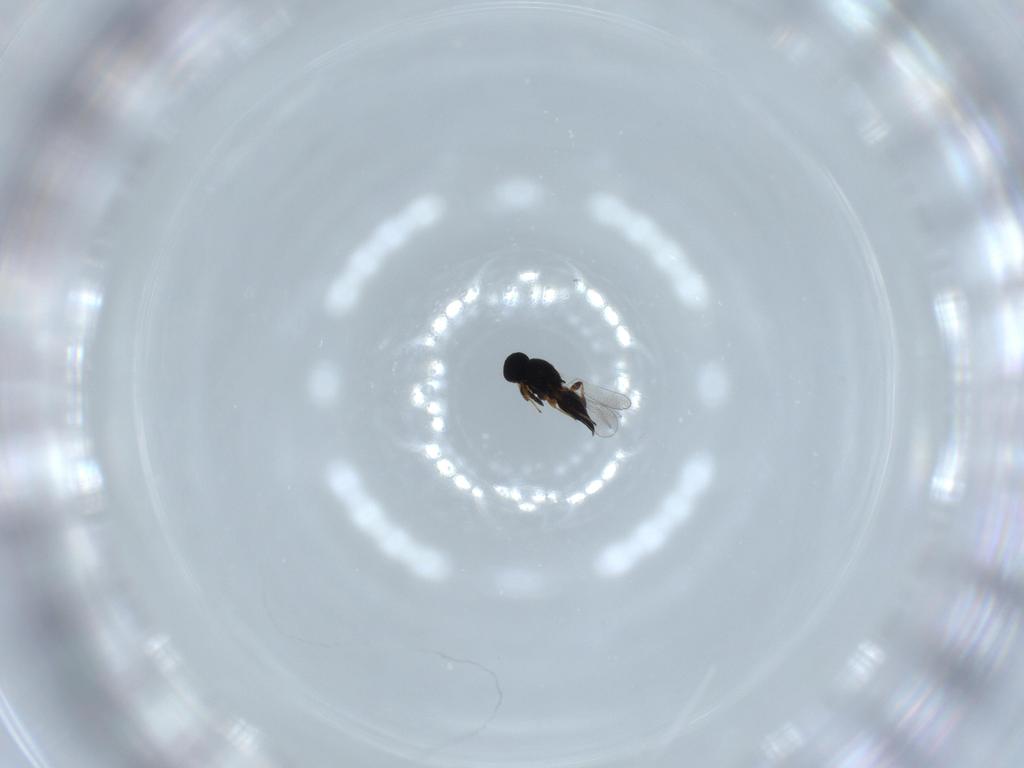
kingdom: Animalia
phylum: Arthropoda
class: Insecta
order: Hymenoptera
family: Platygastridae
